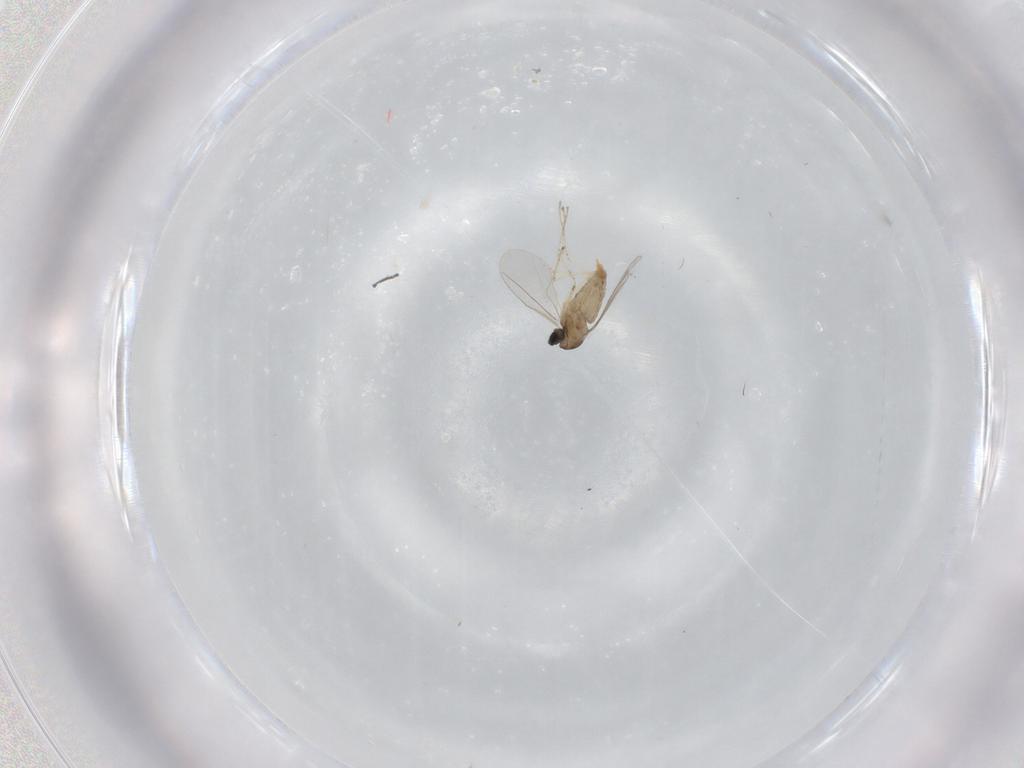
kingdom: Animalia
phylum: Arthropoda
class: Insecta
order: Diptera
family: Cecidomyiidae
